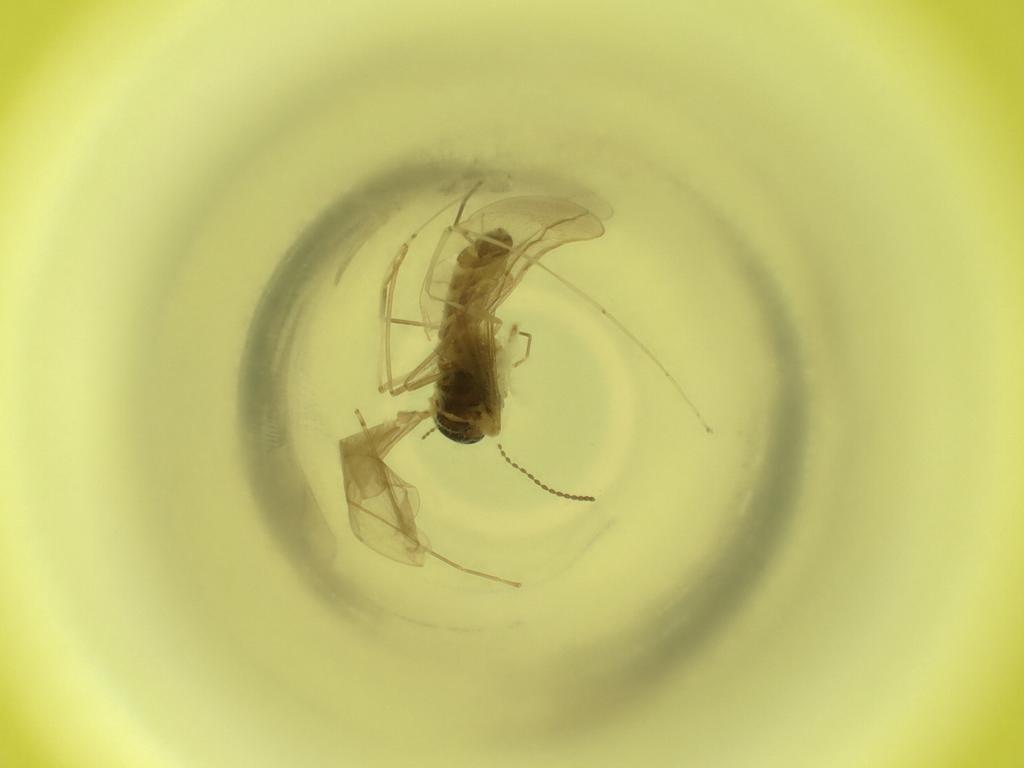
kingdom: Animalia
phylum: Arthropoda
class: Insecta
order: Diptera
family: Cecidomyiidae
